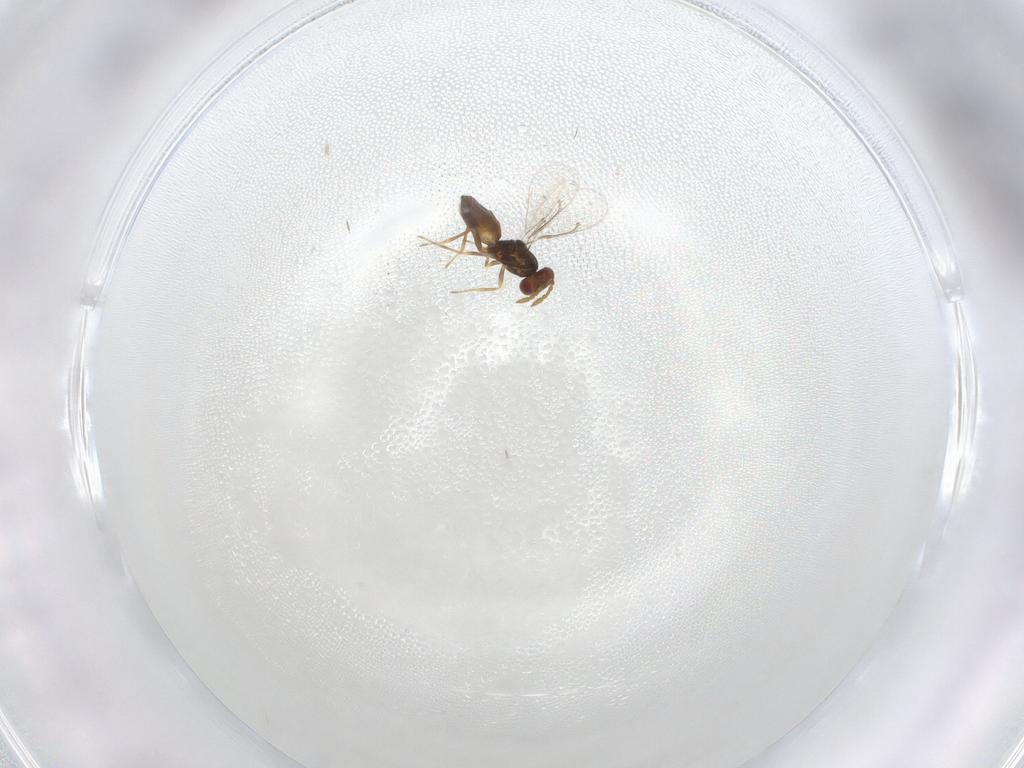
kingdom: Animalia
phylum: Arthropoda
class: Insecta
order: Hymenoptera
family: Eulophidae
